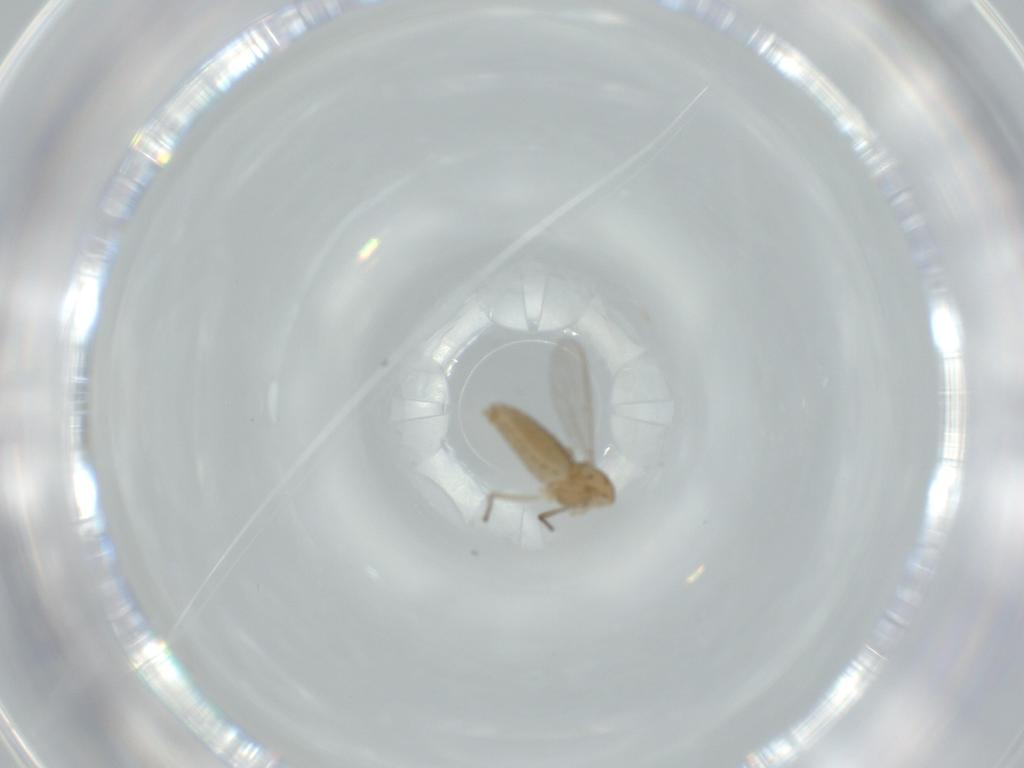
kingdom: Animalia
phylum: Arthropoda
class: Insecta
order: Diptera
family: Chironomidae
